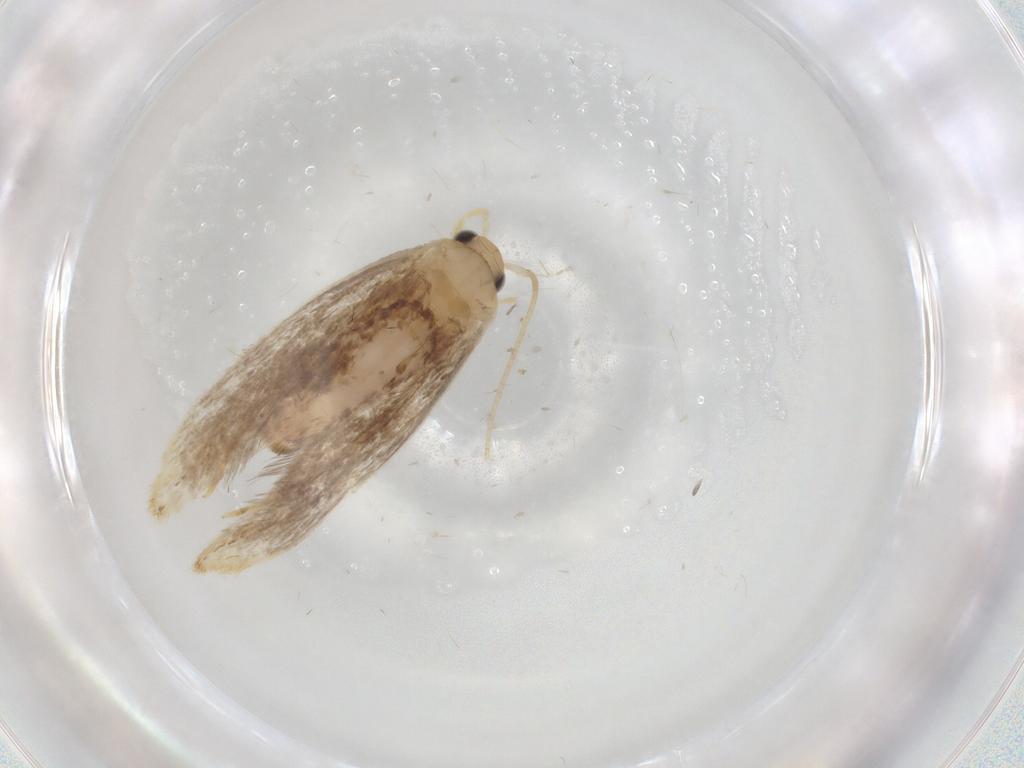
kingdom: Animalia
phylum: Arthropoda
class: Insecta
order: Lepidoptera
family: Dryadaulidae
